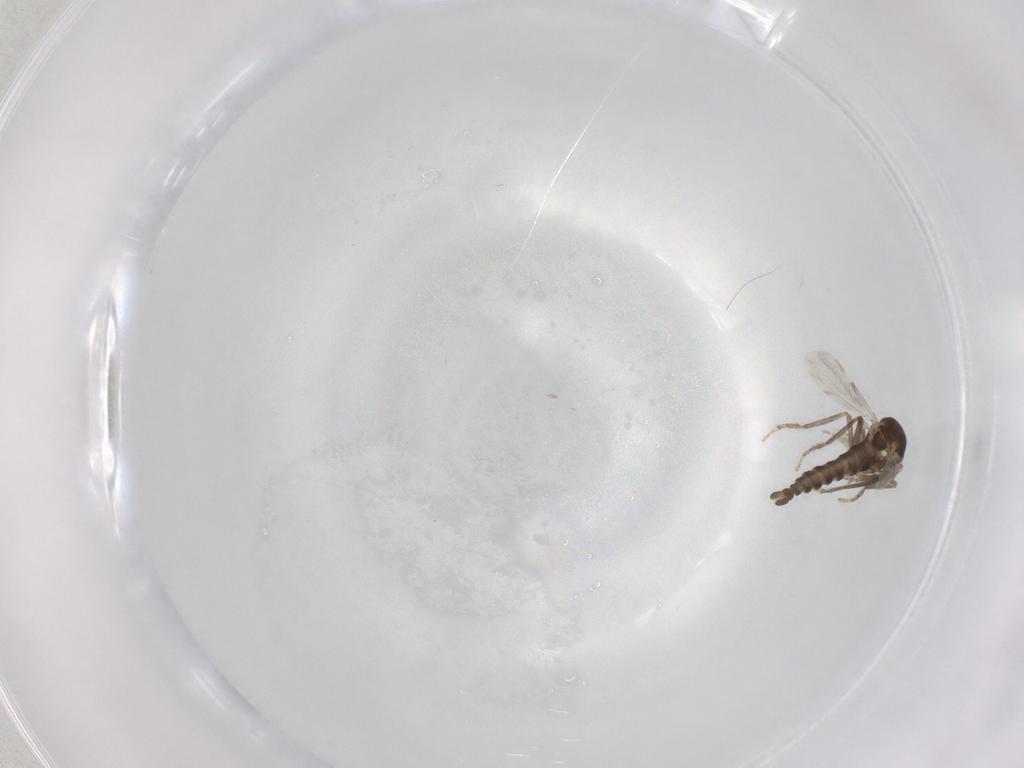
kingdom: Animalia
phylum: Arthropoda
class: Insecta
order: Diptera
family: Ceratopogonidae
